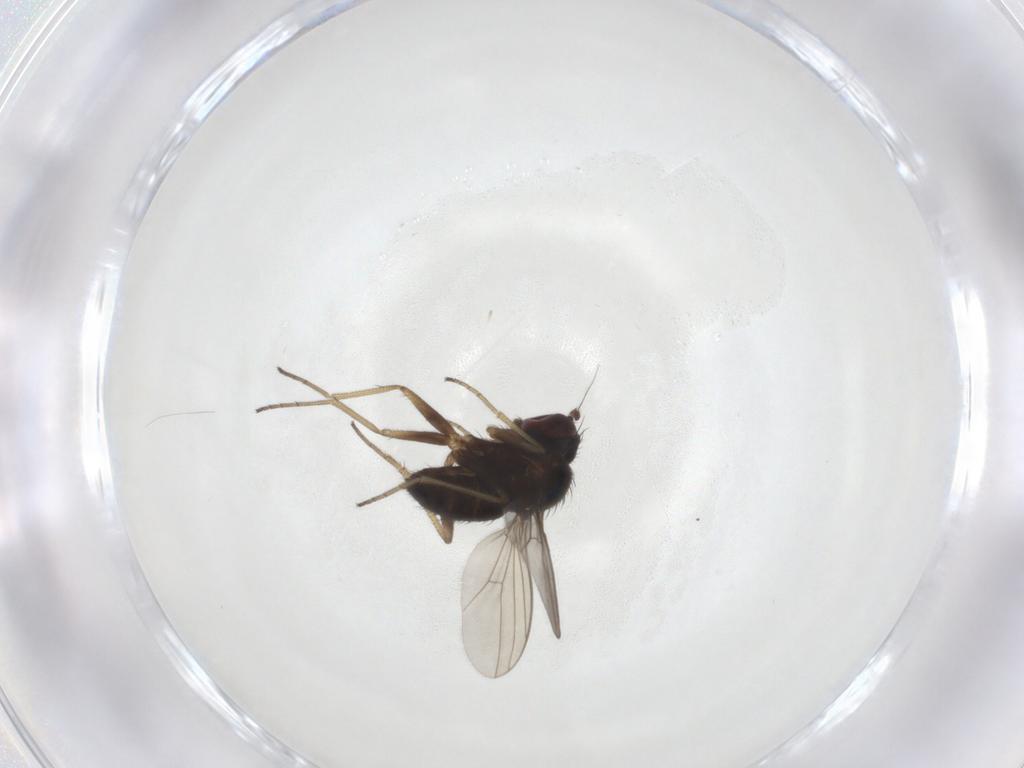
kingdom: Animalia
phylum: Arthropoda
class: Insecta
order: Diptera
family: Dolichopodidae
